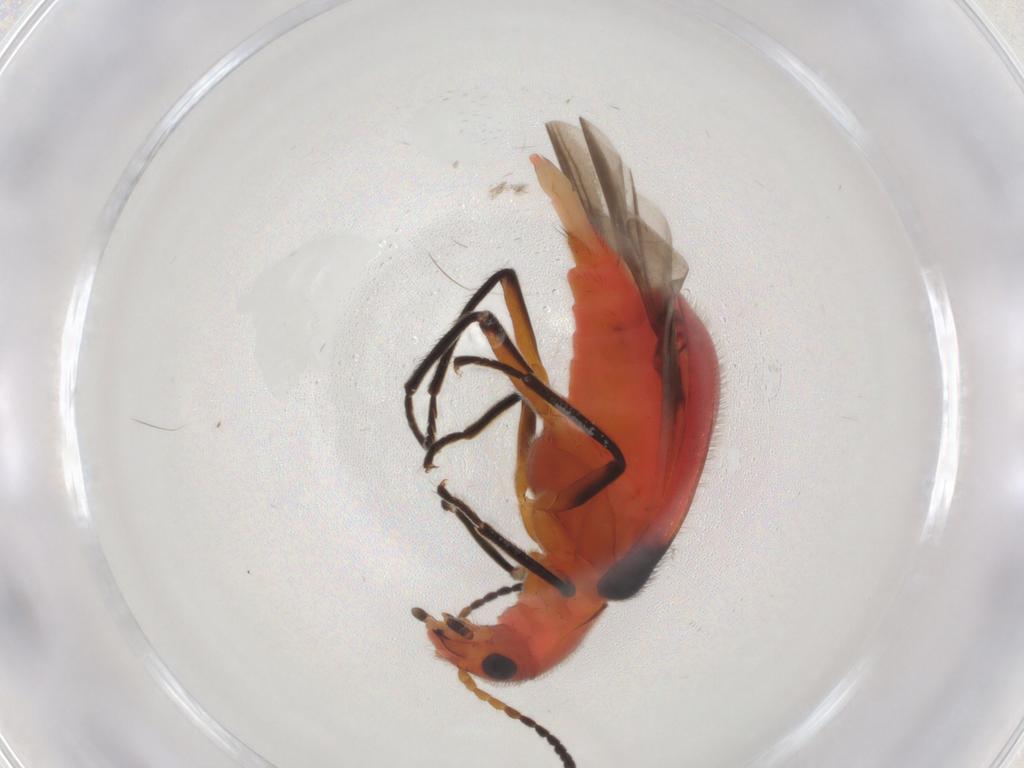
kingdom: Animalia
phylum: Arthropoda
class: Insecta
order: Coleoptera
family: Melyridae
